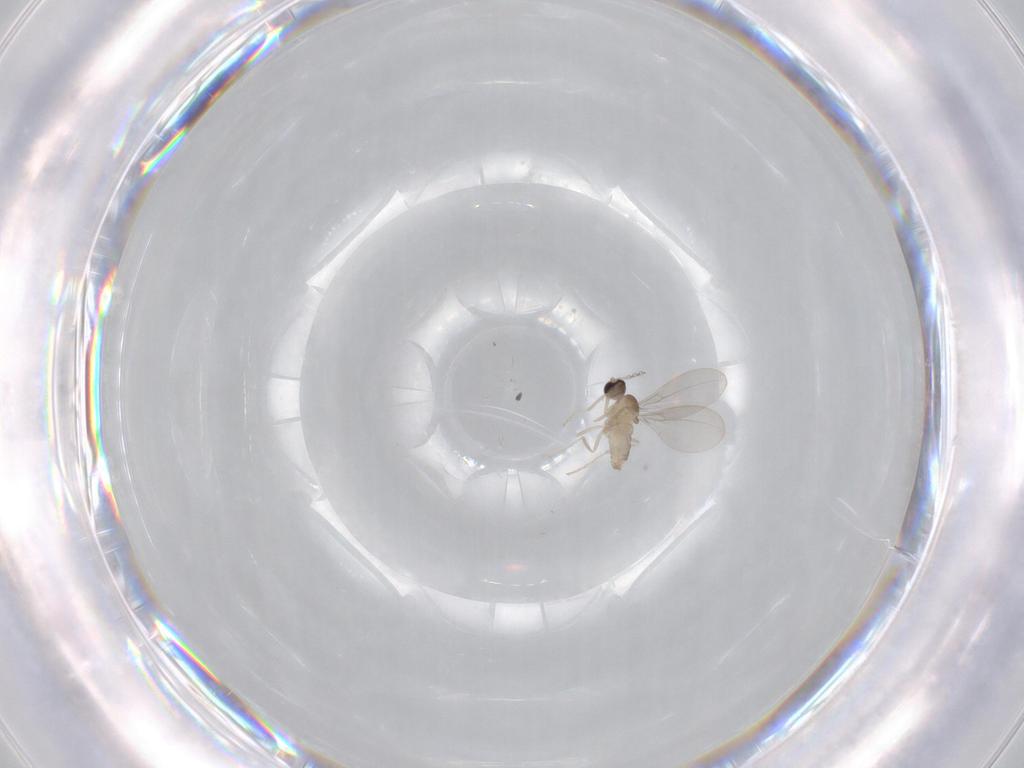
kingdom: Animalia
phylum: Arthropoda
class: Insecta
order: Diptera
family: Cecidomyiidae
